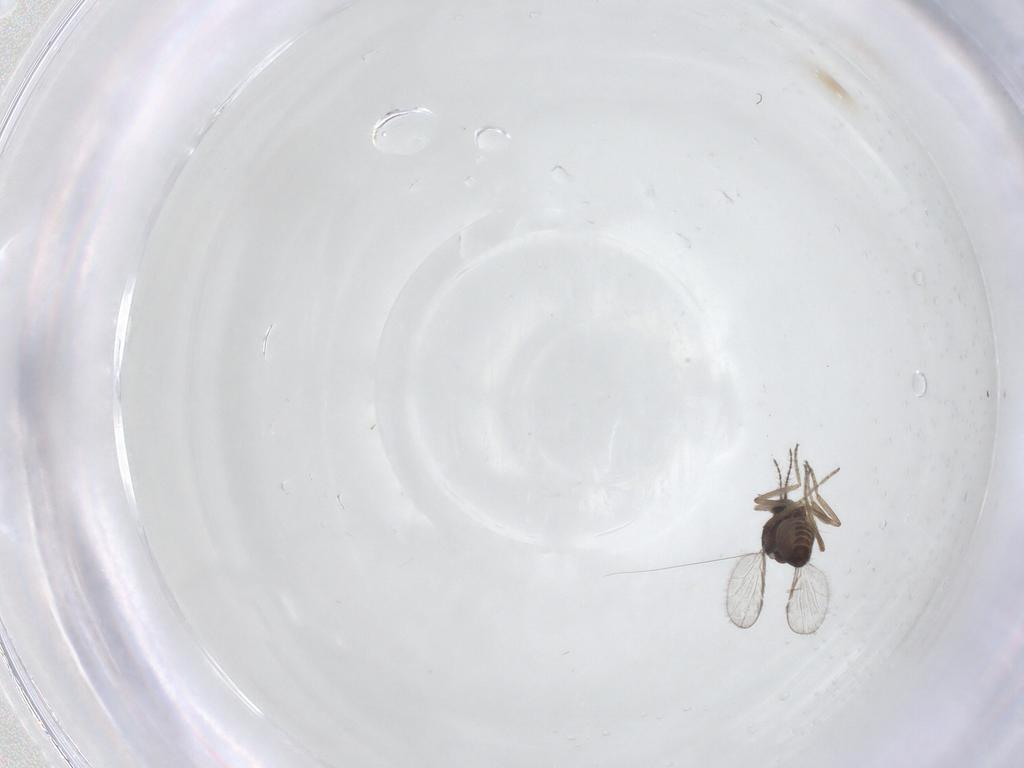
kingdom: Animalia
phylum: Arthropoda
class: Insecta
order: Diptera
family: Ceratopogonidae
